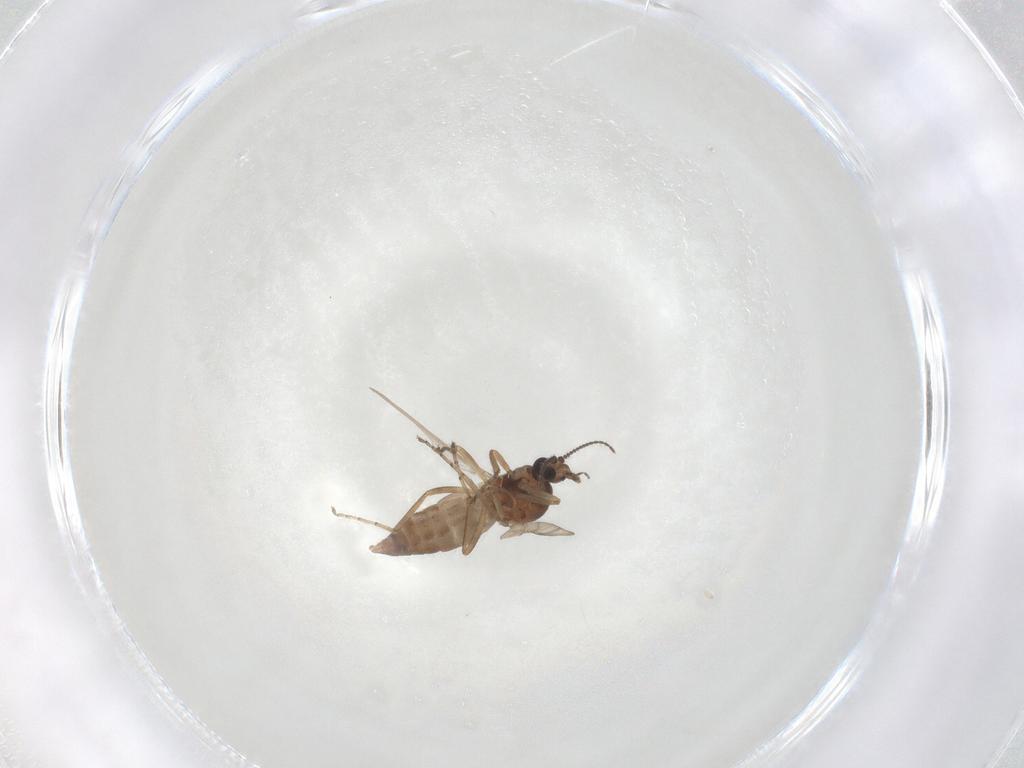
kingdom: Animalia
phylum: Arthropoda
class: Insecta
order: Diptera
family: Ceratopogonidae
